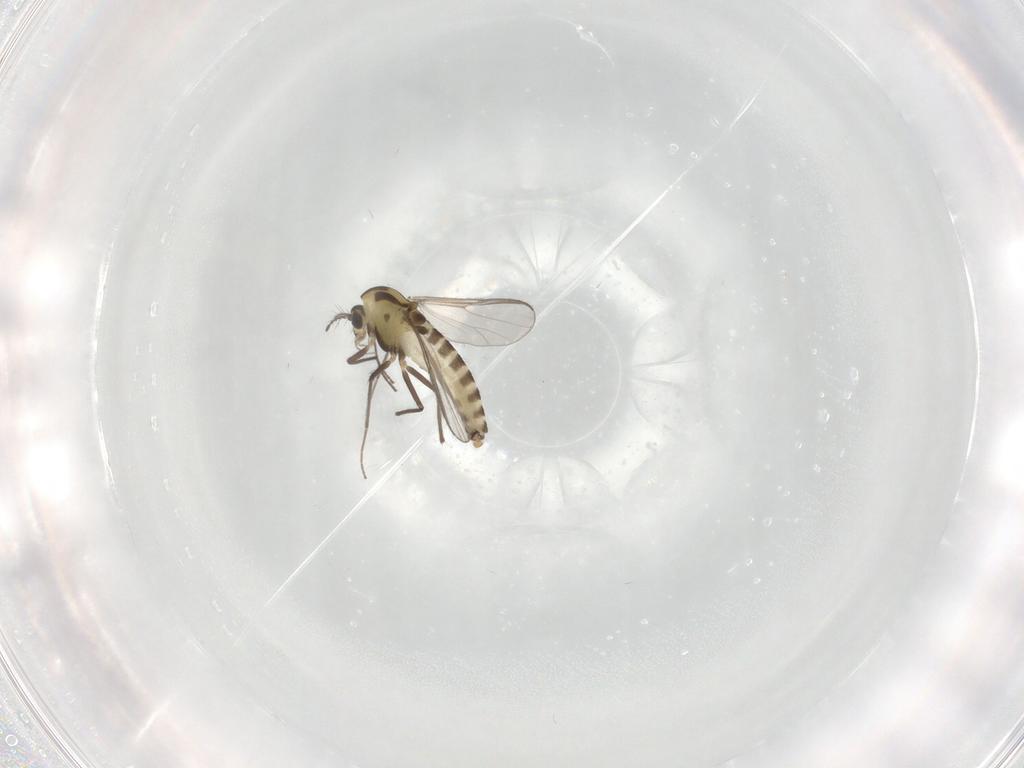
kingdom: Animalia
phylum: Arthropoda
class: Insecta
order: Diptera
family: Chironomidae
